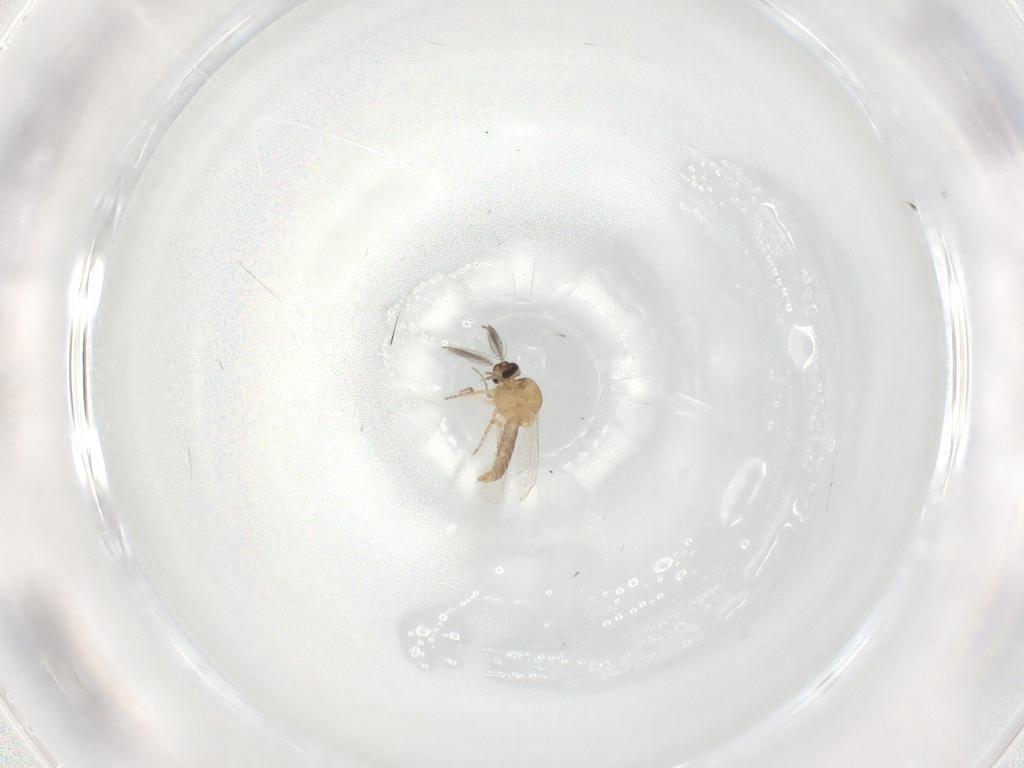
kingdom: Animalia
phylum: Arthropoda
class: Insecta
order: Diptera
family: Ceratopogonidae
